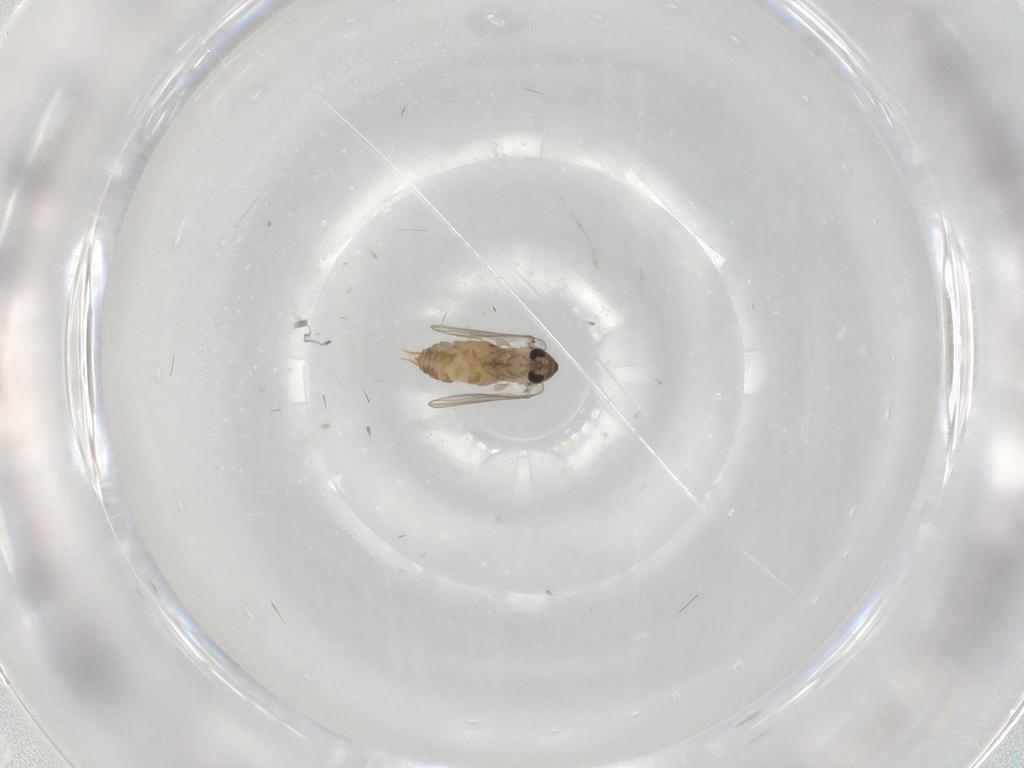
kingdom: Animalia
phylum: Arthropoda
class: Insecta
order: Diptera
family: Psychodidae
